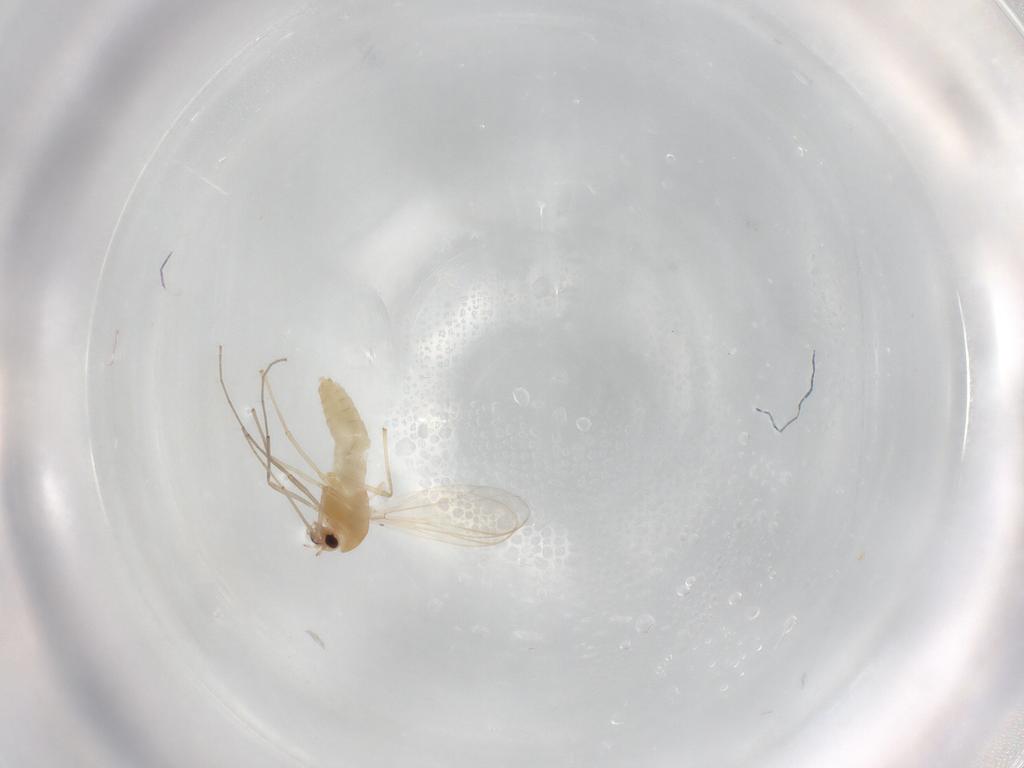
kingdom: Animalia
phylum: Arthropoda
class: Insecta
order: Diptera
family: Chironomidae
